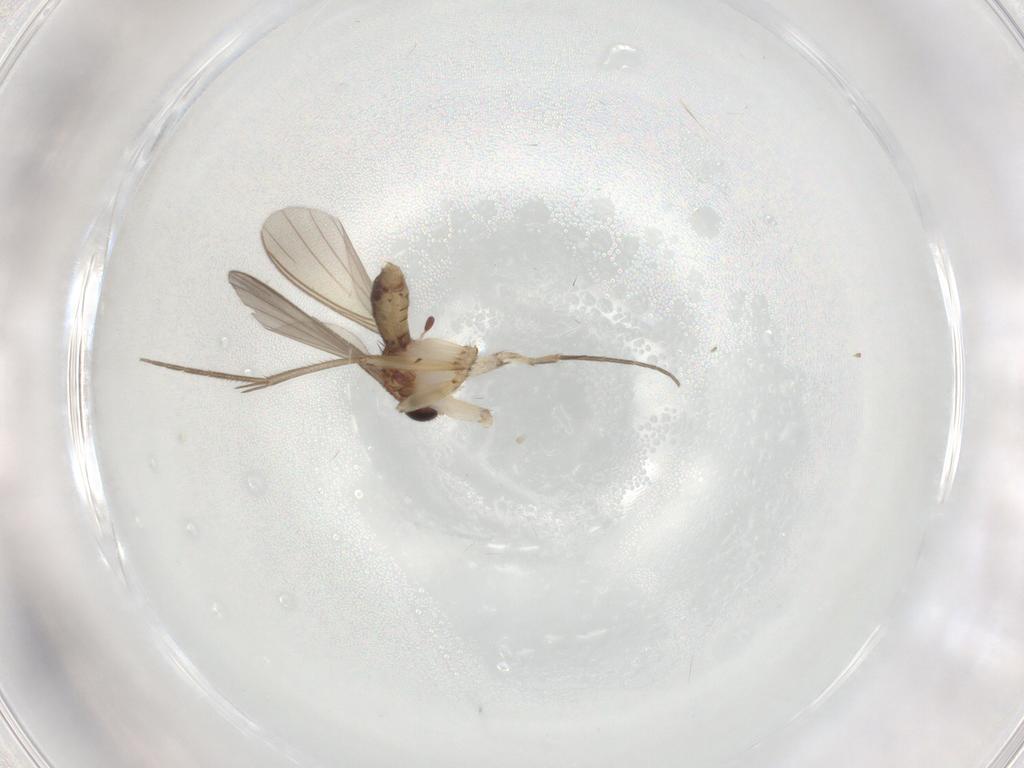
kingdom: Animalia
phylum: Arthropoda
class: Insecta
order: Diptera
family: Mycetophilidae
